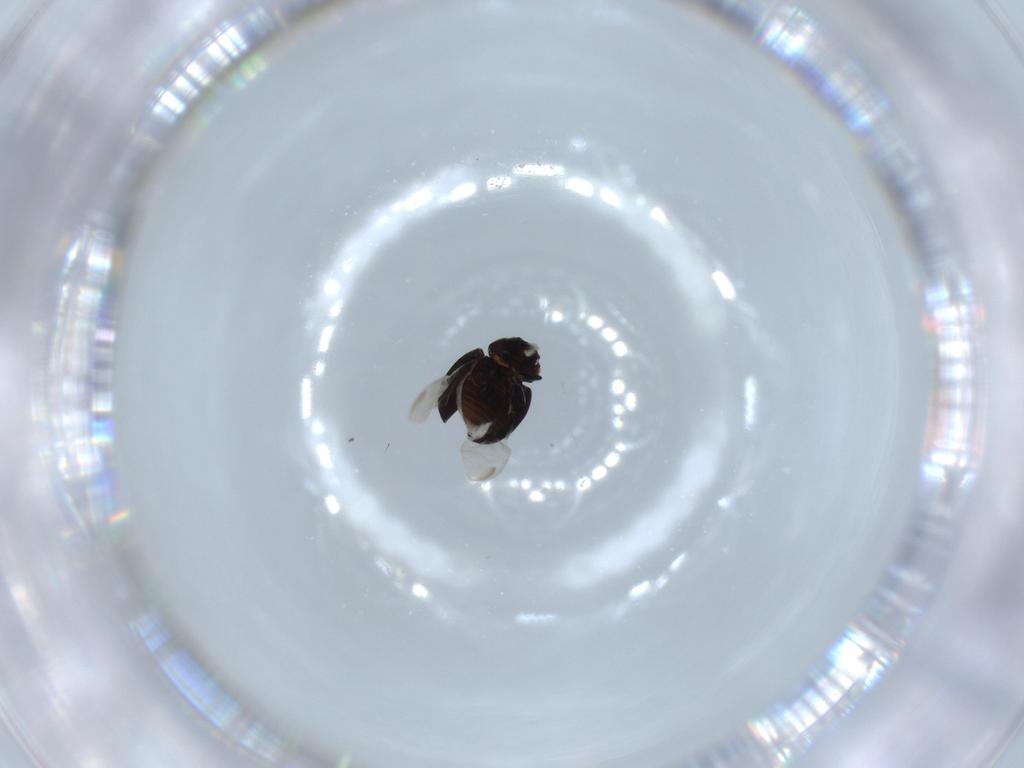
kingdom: Animalia
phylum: Arthropoda
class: Insecta
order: Coleoptera
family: Coccinellidae
